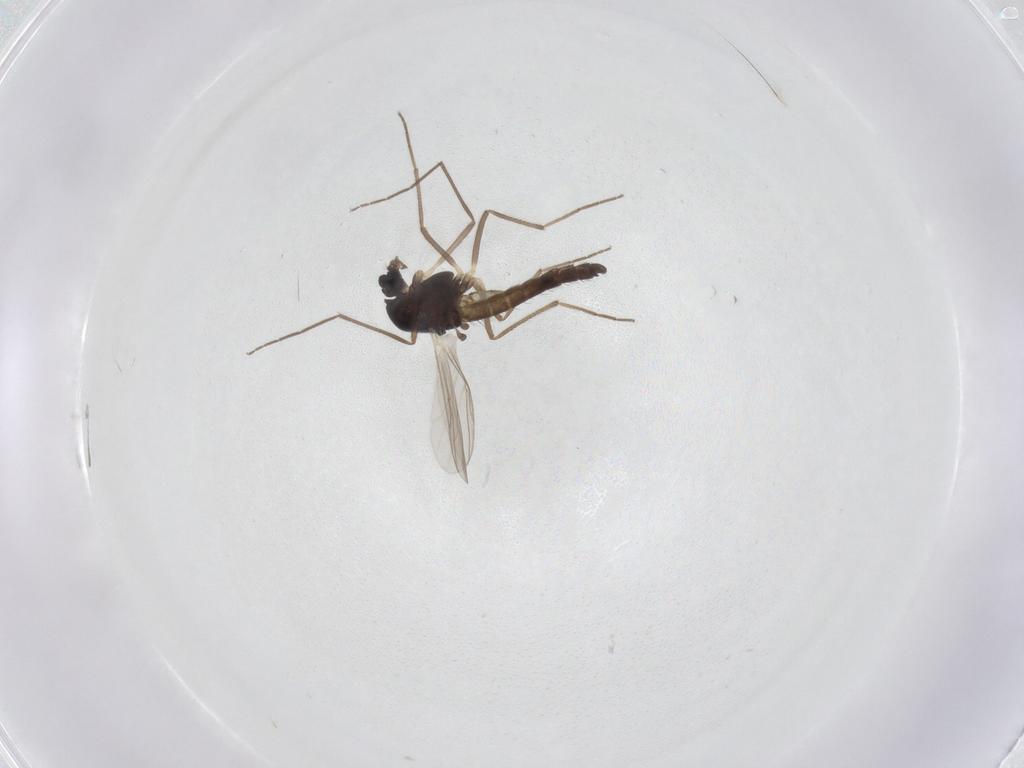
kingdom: Animalia
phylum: Arthropoda
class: Insecta
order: Diptera
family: Chironomidae
